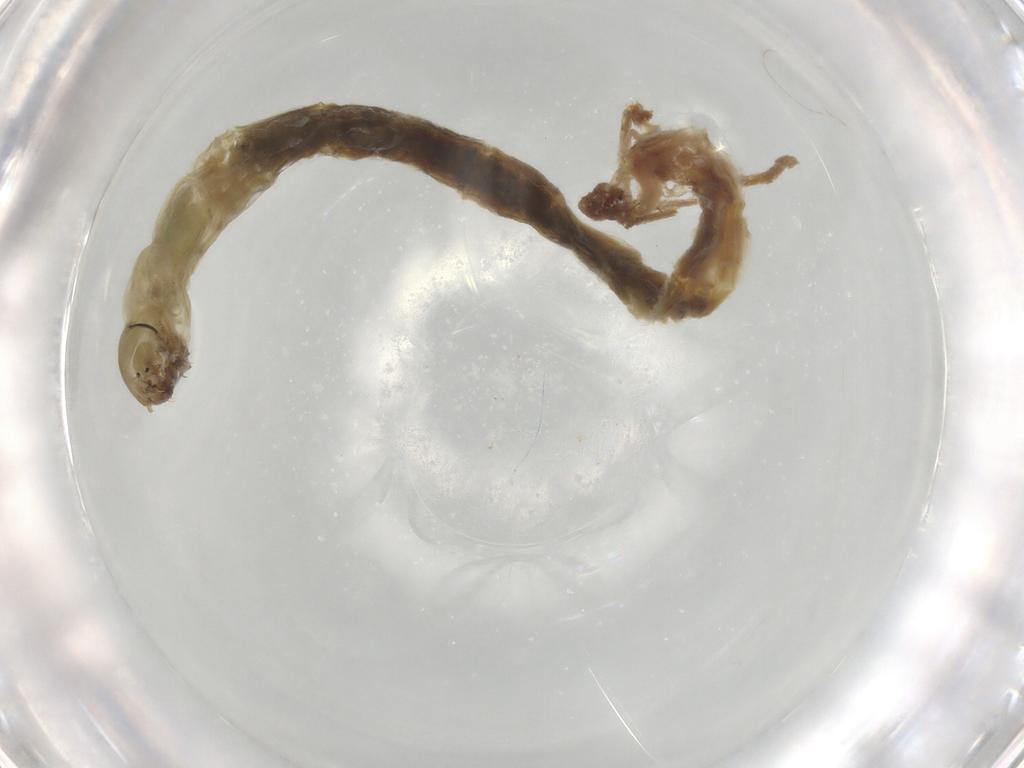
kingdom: Animalia
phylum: Arthropoda
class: Insecta
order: Diptera
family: Chironomidae
